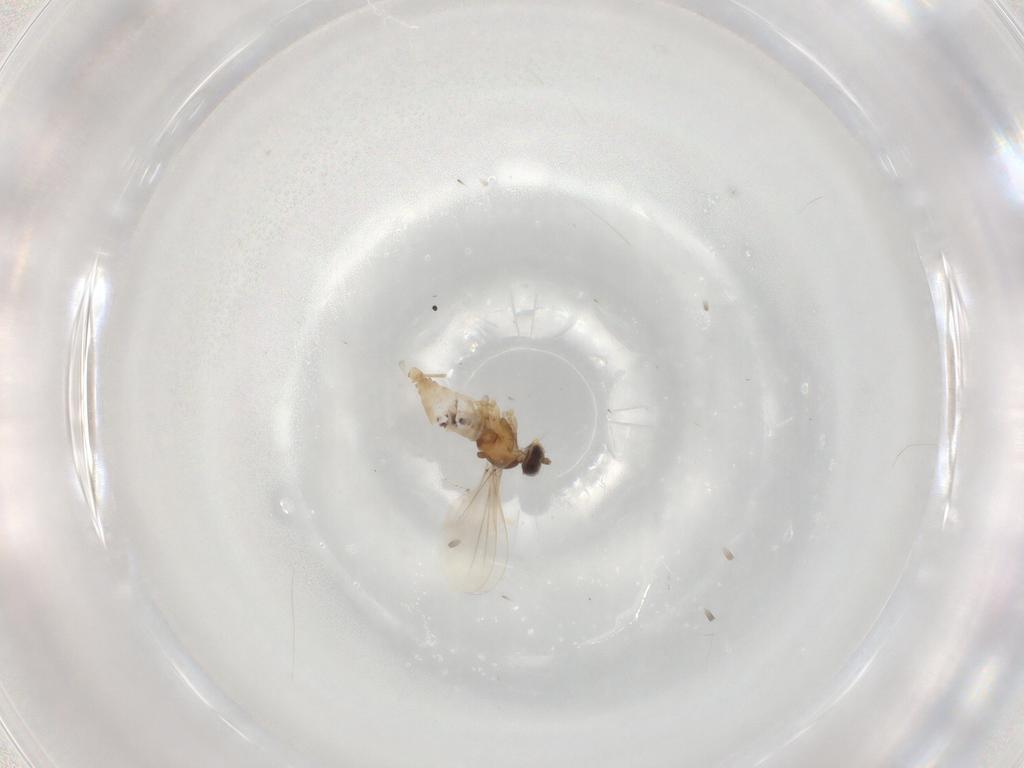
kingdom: Animalia
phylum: Arthropoda
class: Insecta
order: Diptera
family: Cecidomyiidae
